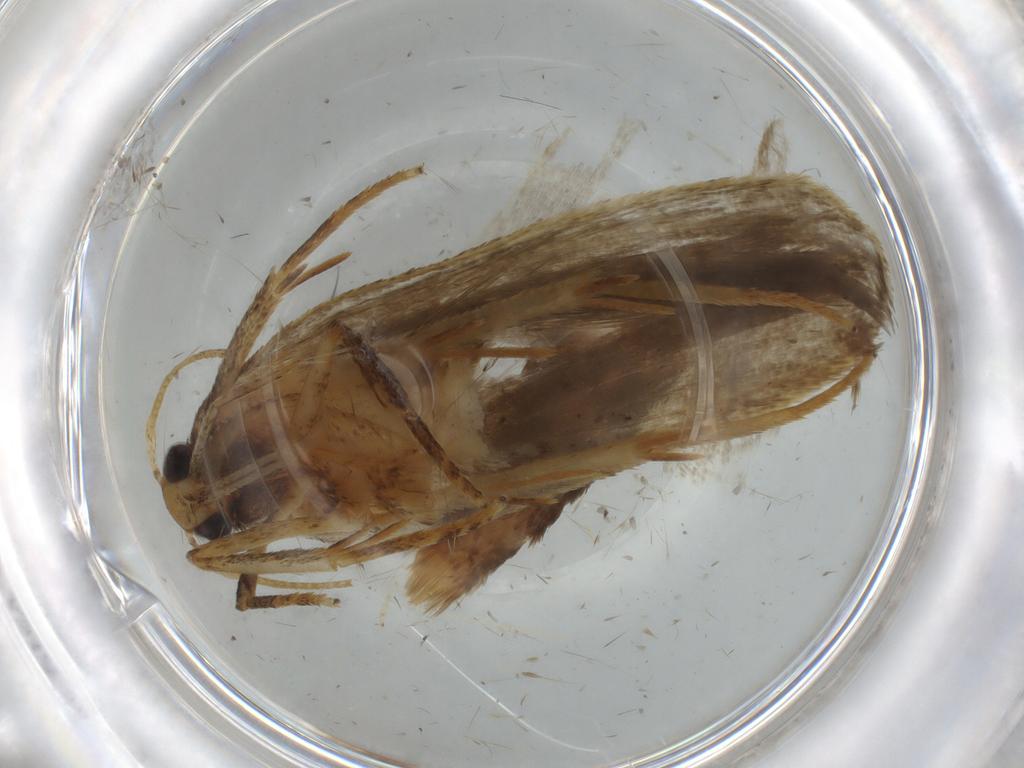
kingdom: Animalia
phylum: Arthropoda
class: Insecta
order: Lepidoptera
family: Autostichidae
